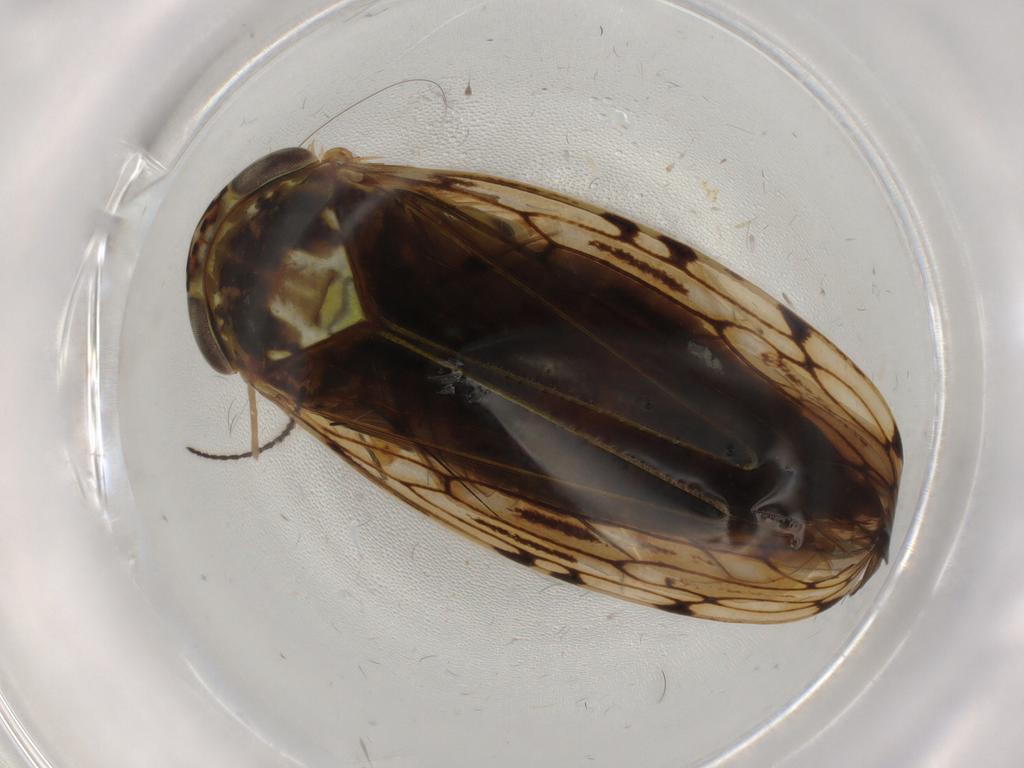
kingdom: Animalia
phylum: Arthropoda
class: Insecta
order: Hemiptera
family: Cicadellidae
